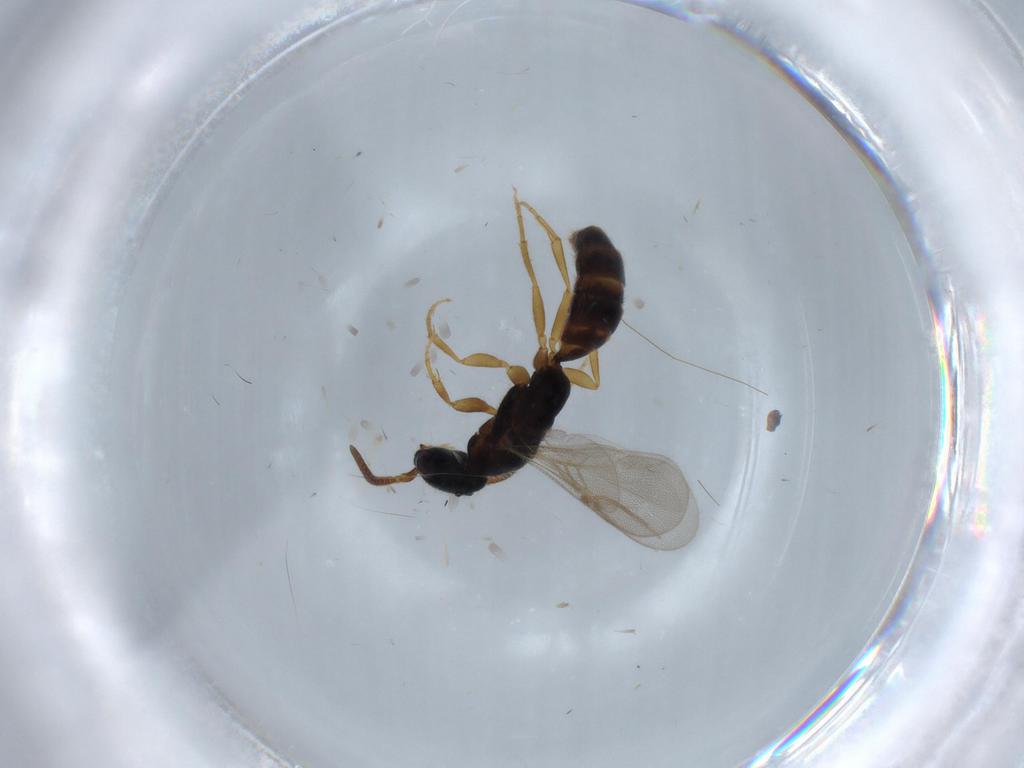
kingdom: Animalia
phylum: Arthropoda
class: Insecta
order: Hymenoptera
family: Bethylidae
